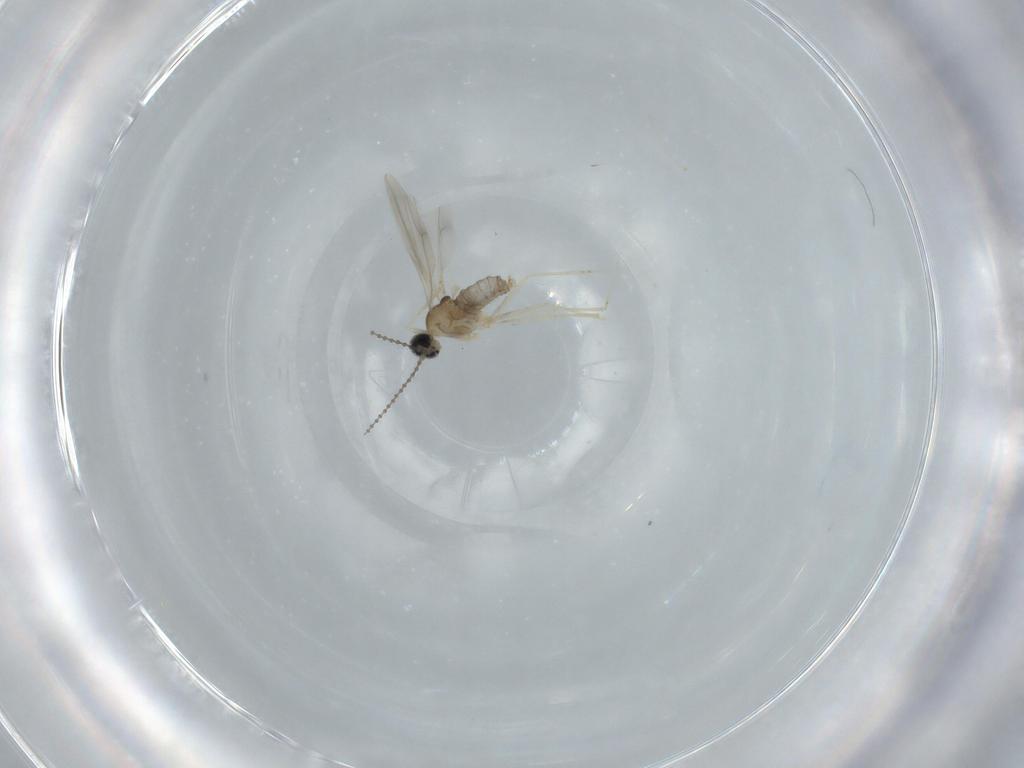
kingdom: Animalia
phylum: Arthropoda
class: Insecta
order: Diptera
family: Cecidomyiidae
